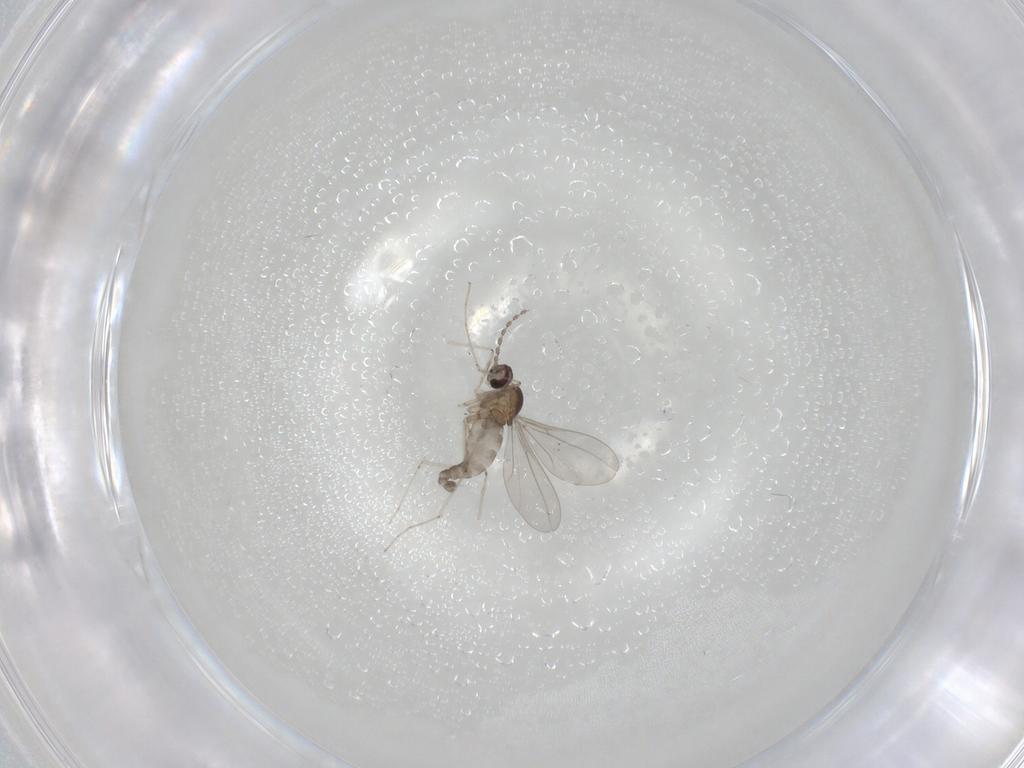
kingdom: Animalia
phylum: Arthropoda
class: Insecta
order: Diptera
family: Cecidomyiidae
